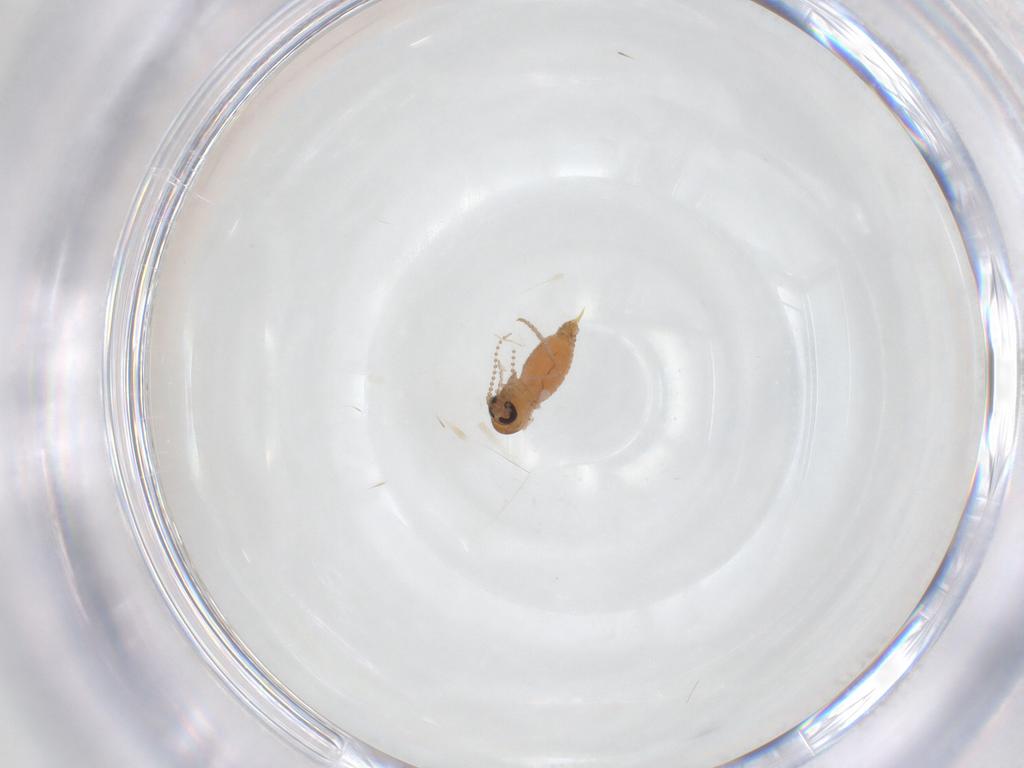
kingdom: Animalia
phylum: Arthropoda
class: Insecta
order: Diptera
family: Psychodidae
